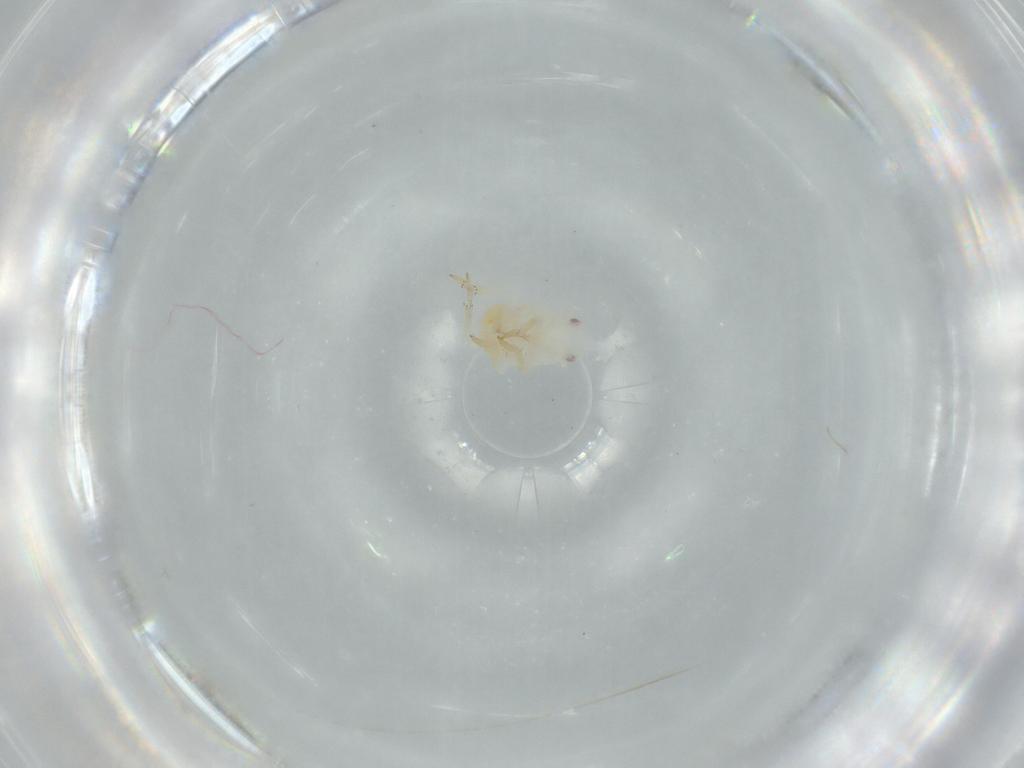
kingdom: Animalia
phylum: Arthropoda
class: Insecta
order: Hemiptera
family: Flatidae
